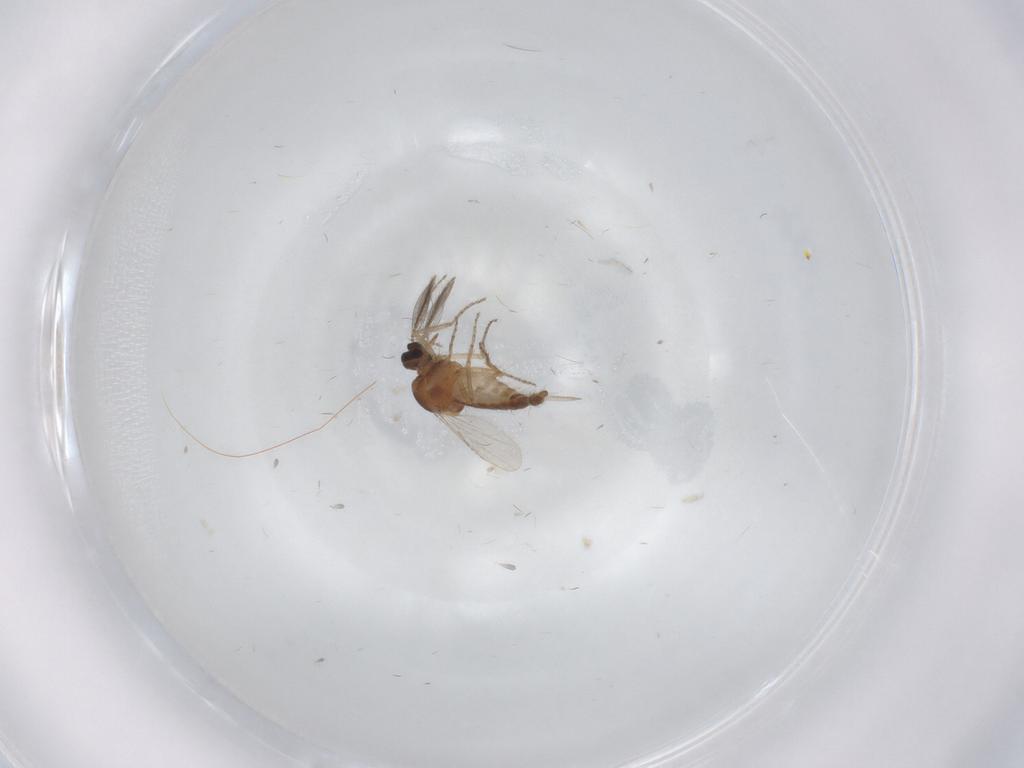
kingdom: Animalia
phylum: Arthropoda
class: Insecta
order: Diptera
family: Ceratopogonidae
